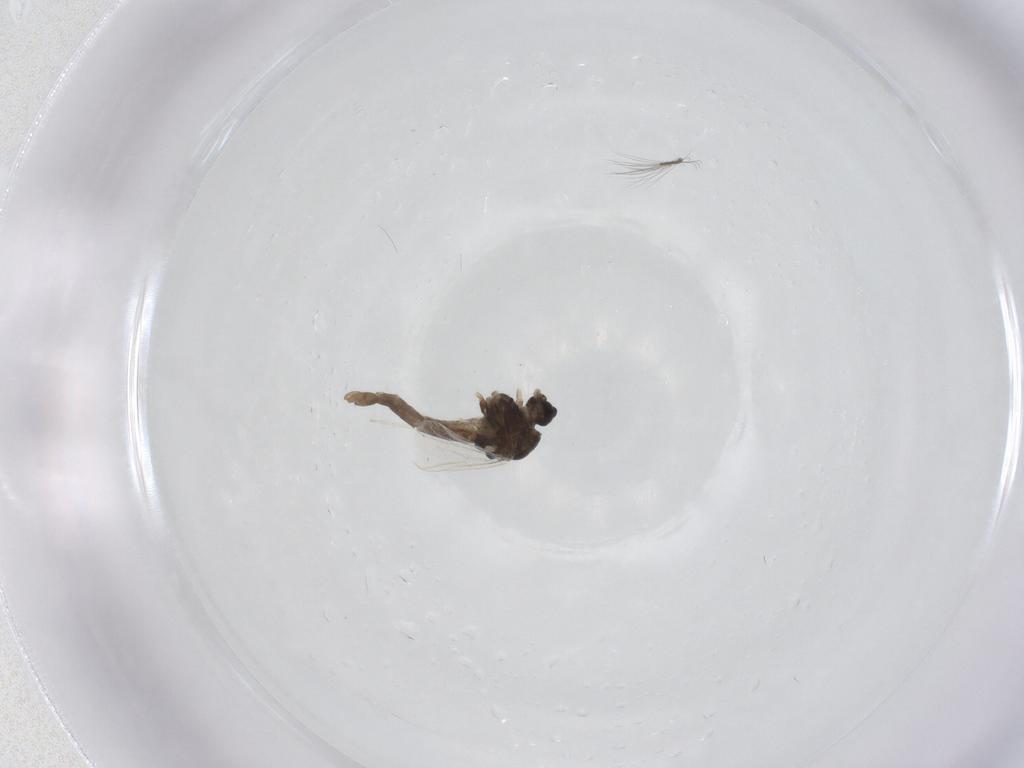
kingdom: Animalia
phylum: Arthropoda
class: Insecta
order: Diptera
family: Chironomidae
